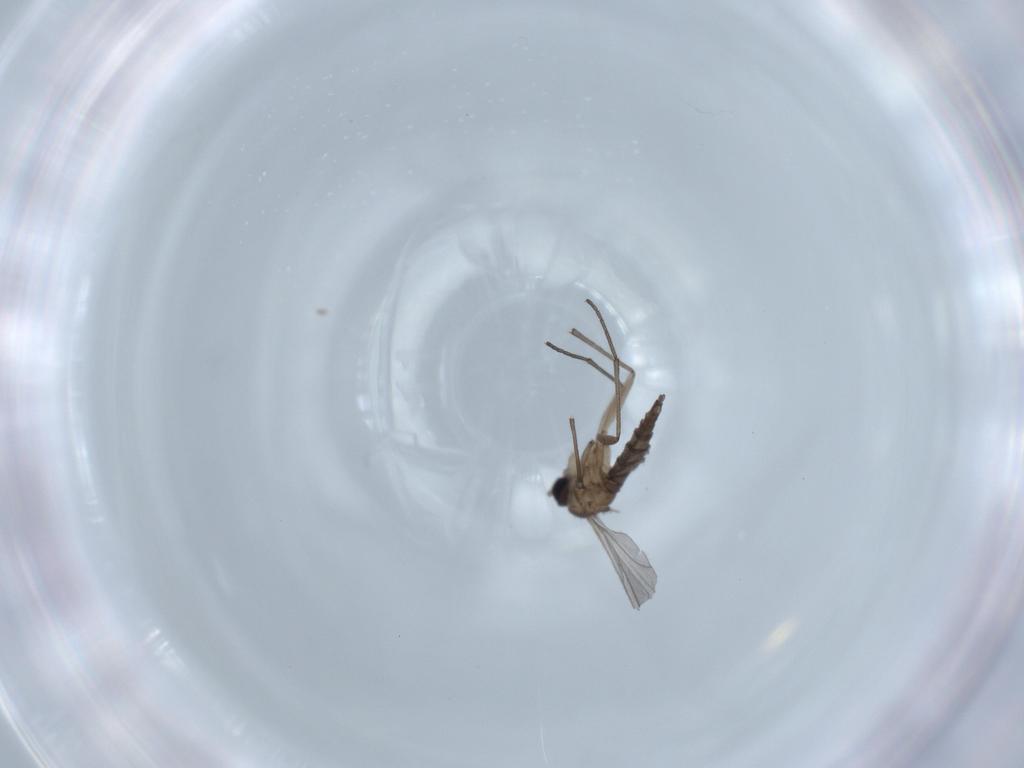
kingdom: Animalia
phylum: Arthropoda
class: Insecta
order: Diptera
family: Sciaridae
